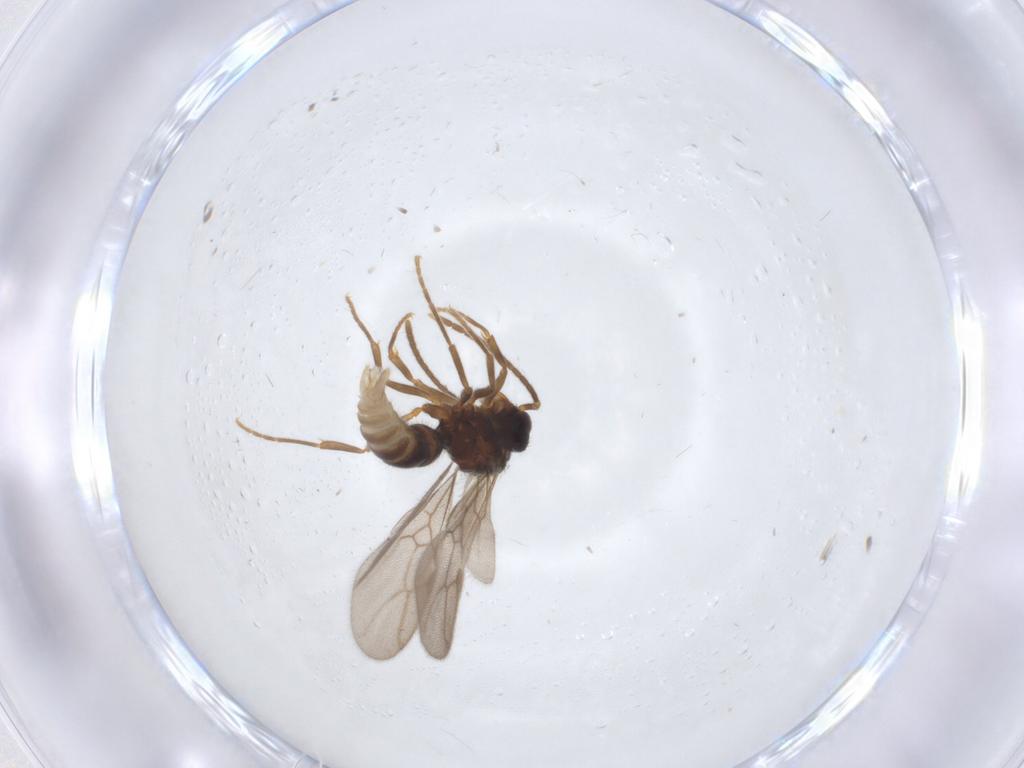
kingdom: Animalia
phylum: Arthropoda
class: Insecta
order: Hymenoptera
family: Formicidae
